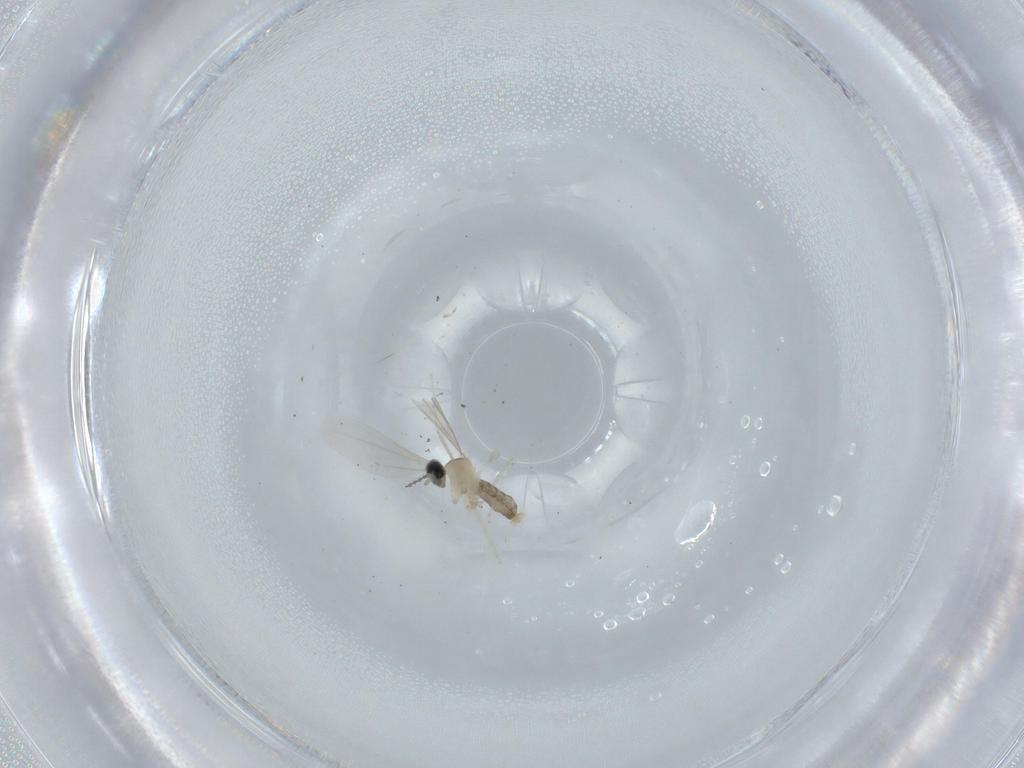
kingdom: Animalia
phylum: Arthropoda
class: Insecta
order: Diptera
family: Cecidomyiidae
